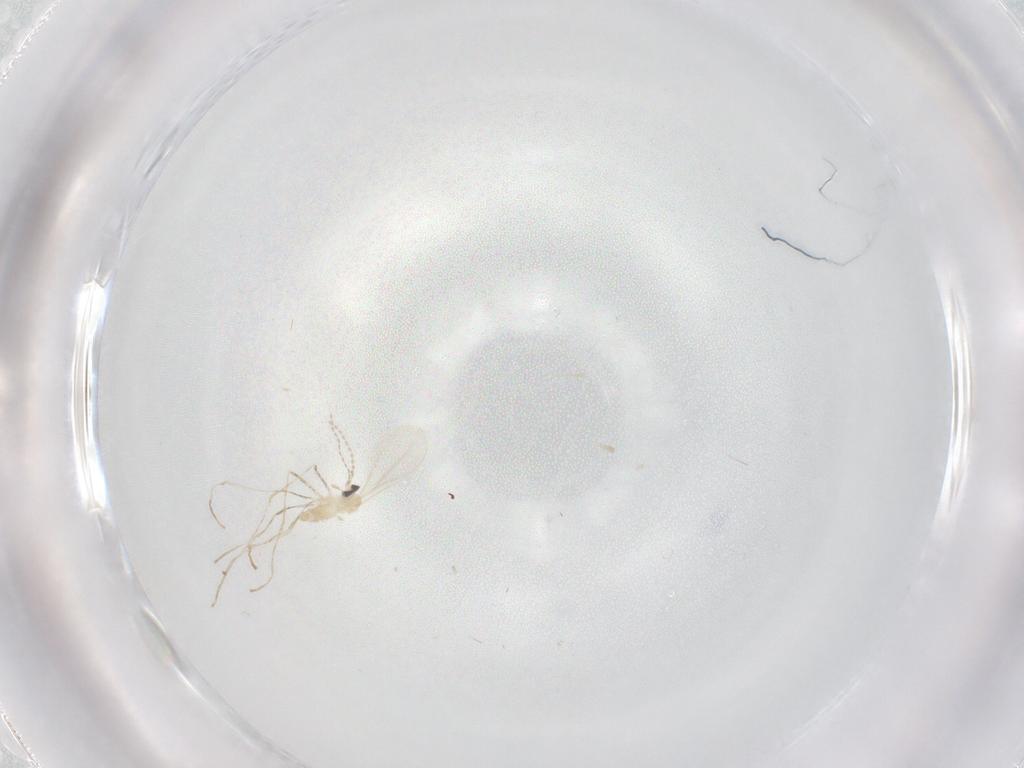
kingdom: Animalia
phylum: Arthropoda
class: Insecta
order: Diptera
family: Cecidomyiidae
